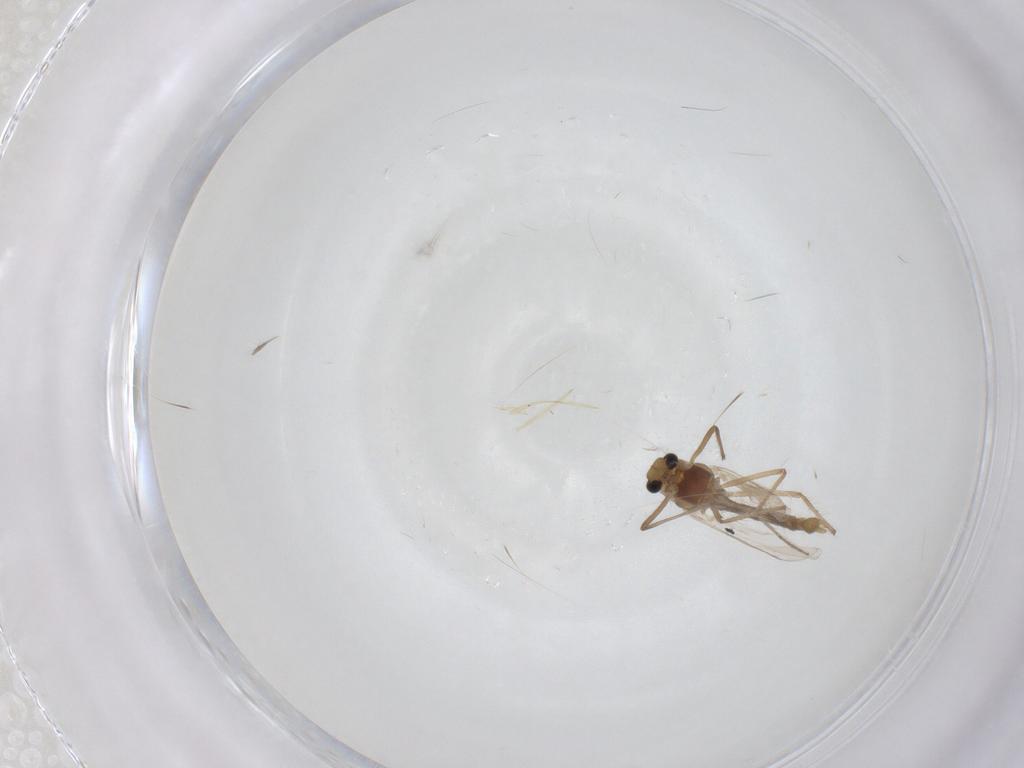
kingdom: Animalia
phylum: Arthropoda
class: Insecta
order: Diptera
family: Chironomidae
